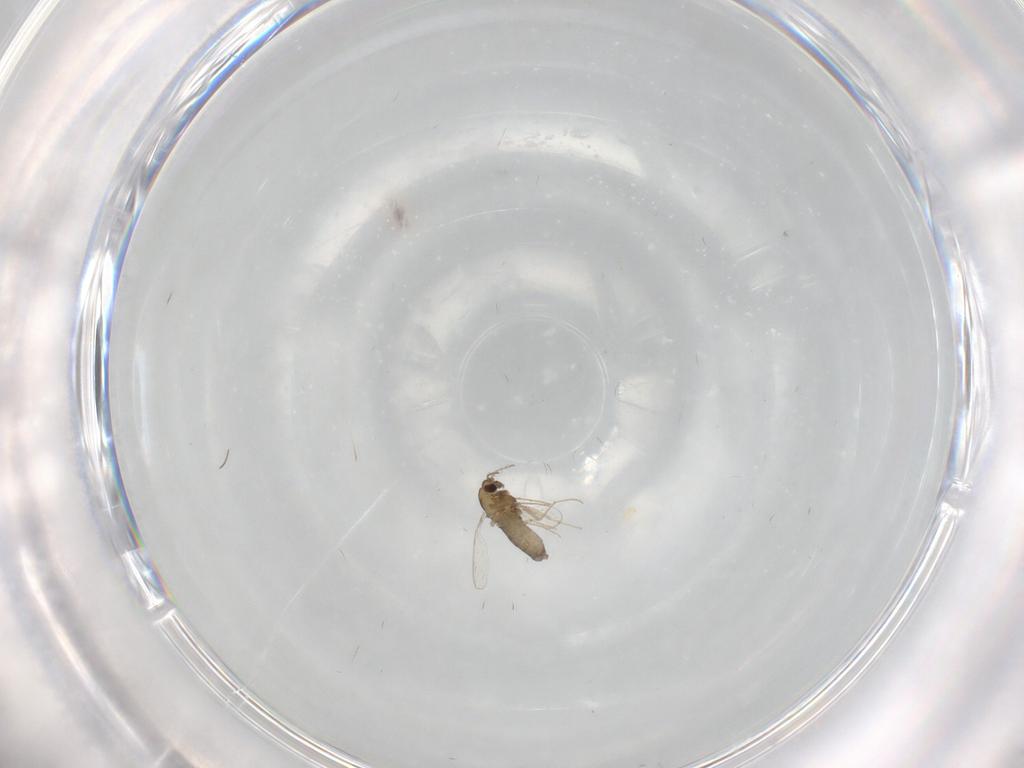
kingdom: Animalia
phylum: Arthropoda
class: Insecta
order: Diptera
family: Chironomidae
